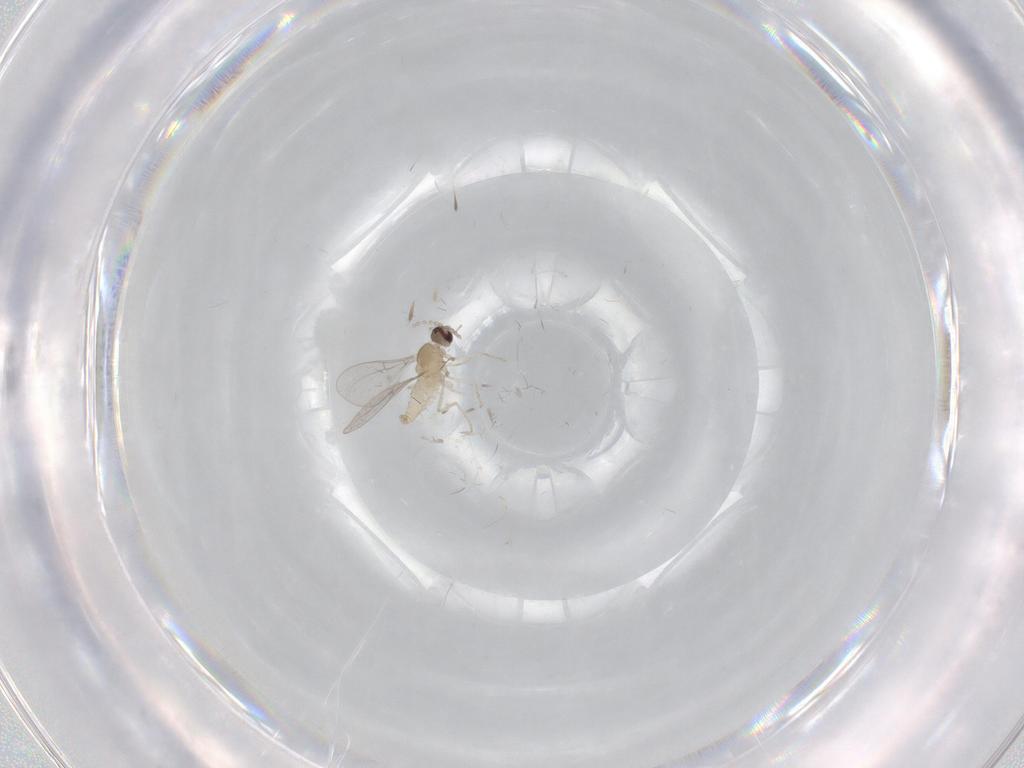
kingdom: Animalia
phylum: Arthropoda
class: Insecta
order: Diptera
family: Cecidomyiidae
